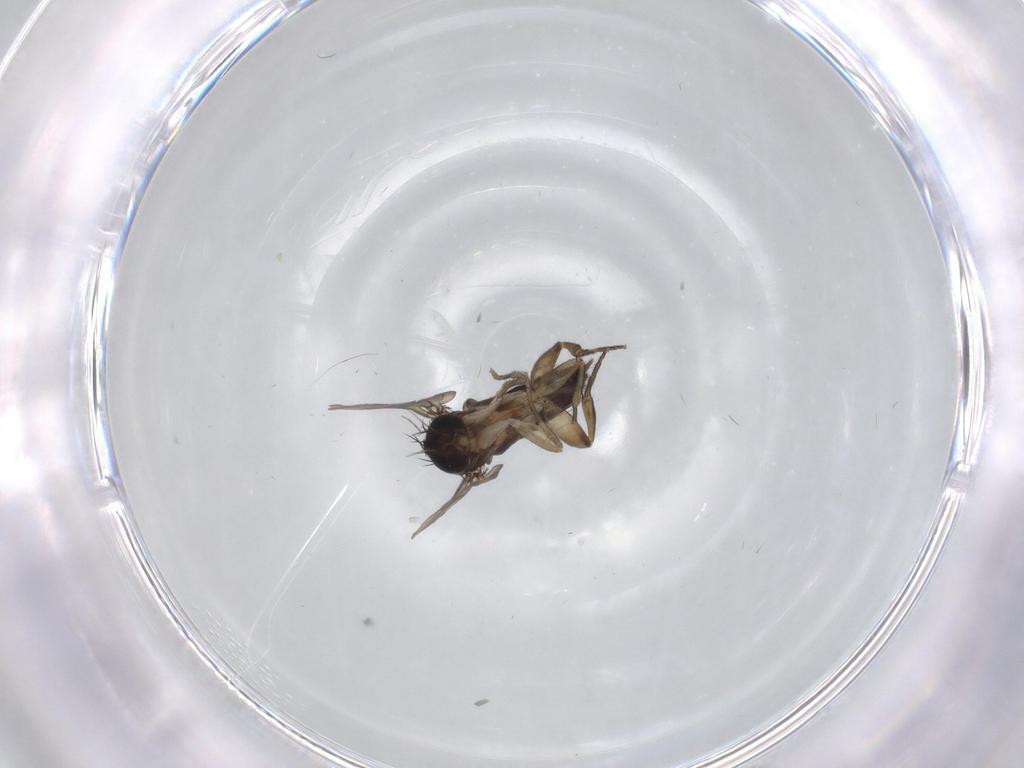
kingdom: Animalia
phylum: Arthropoda
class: Insecta
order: Diptera
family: Phoridae
